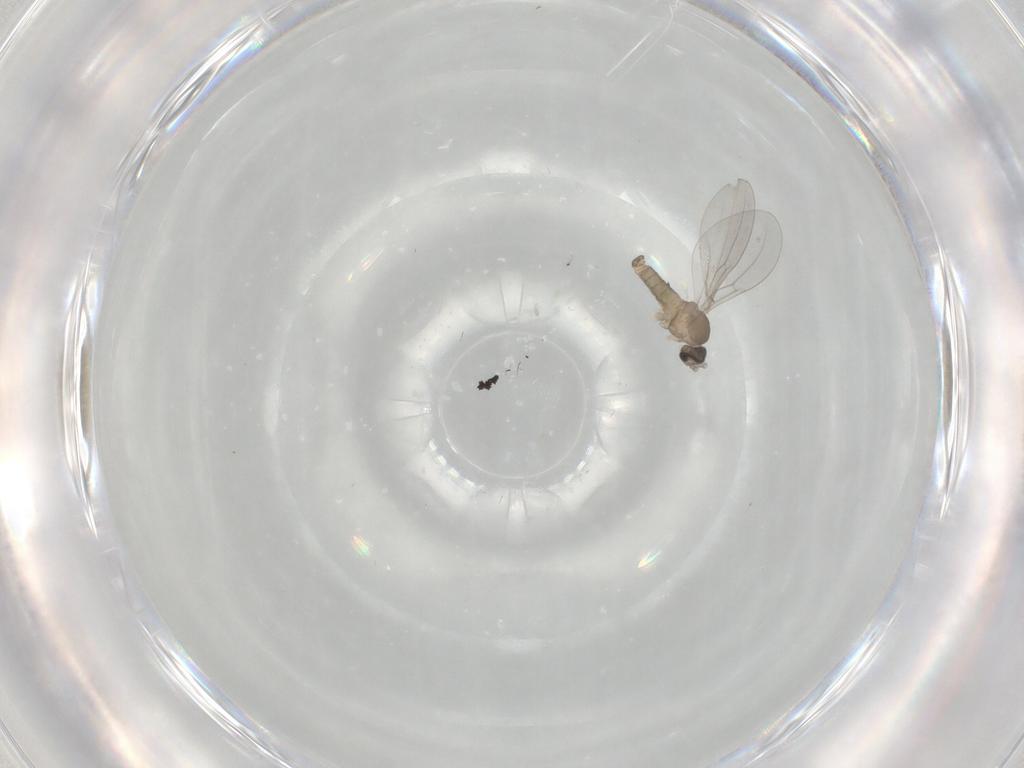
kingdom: Animalia
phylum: Arthropoda
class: Insecta
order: Diptera
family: Cecidomyiidae
